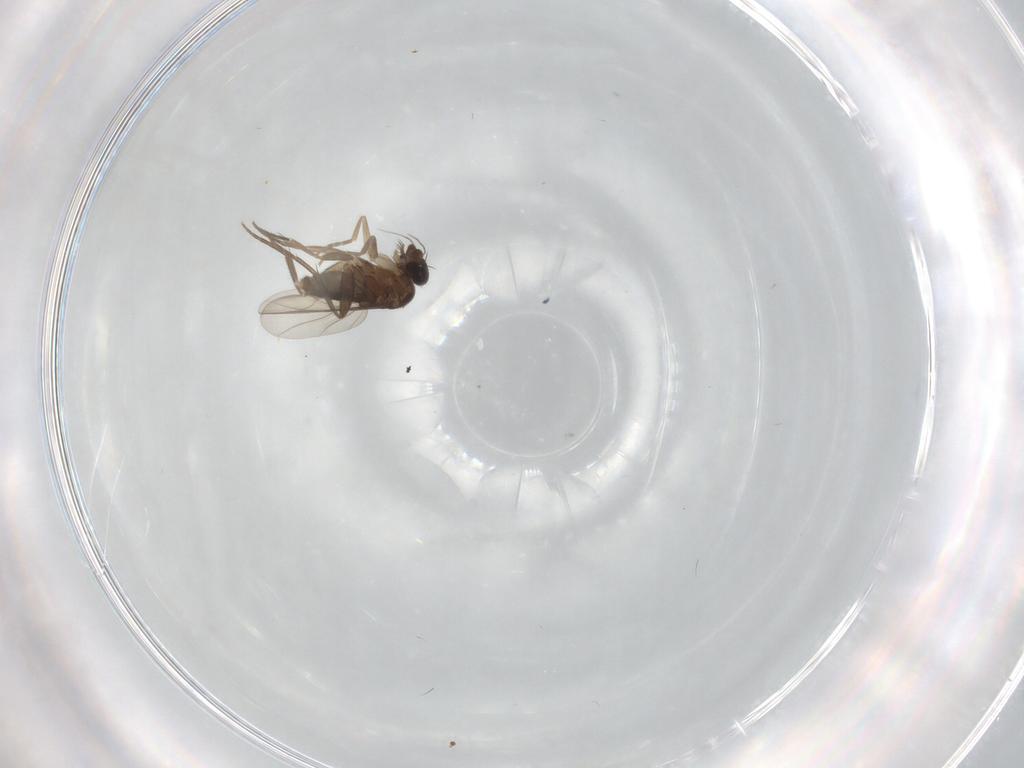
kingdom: Animalia
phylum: Arthropoda
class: Insecta
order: Diptera
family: Phoridae
